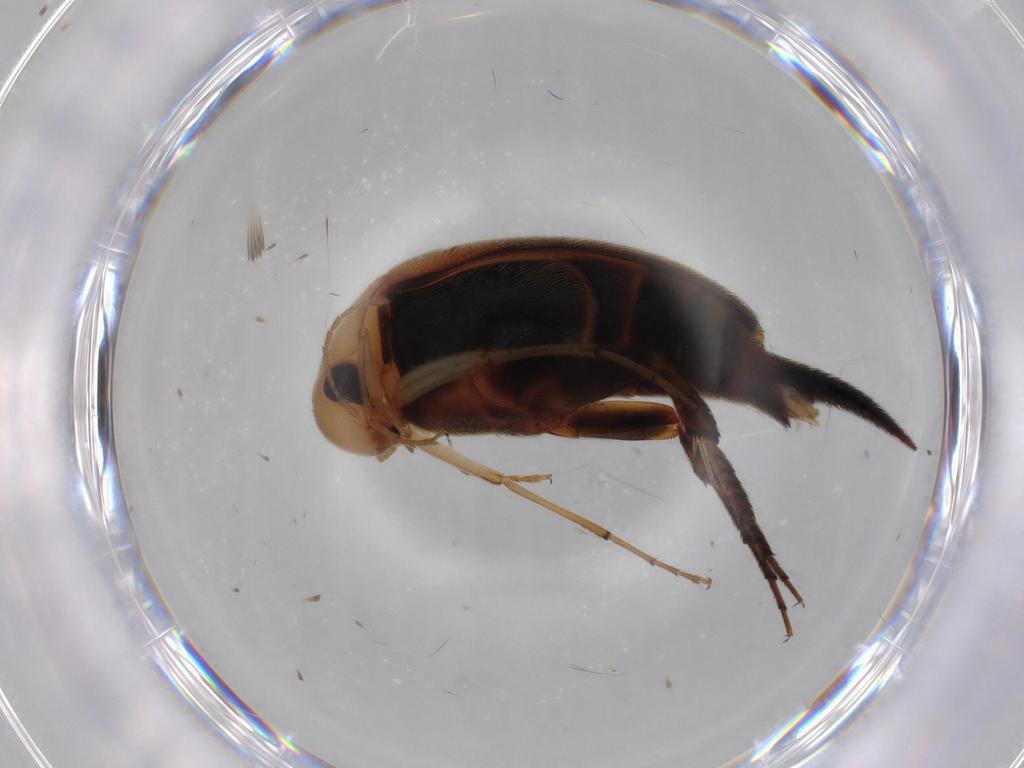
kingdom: Animalia
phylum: Arthropoda
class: Insecta
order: Coleoptera
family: Mordellidae
